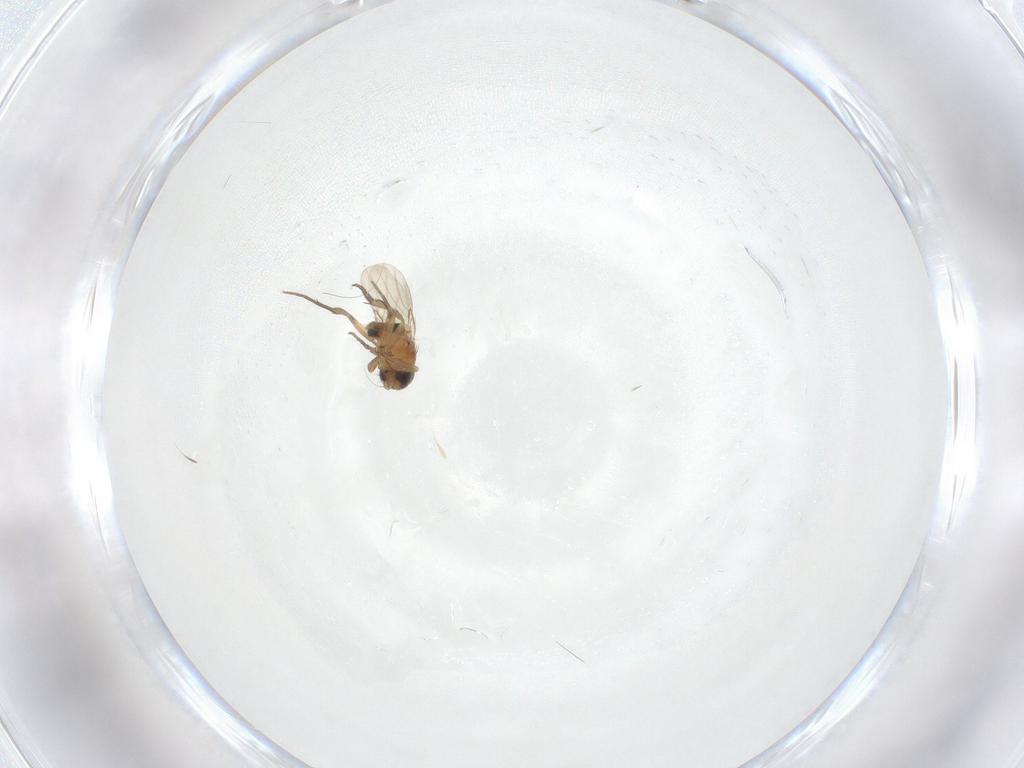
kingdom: Animalia
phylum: Arthropoda
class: Insecta
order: Diptera
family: Phoridae
